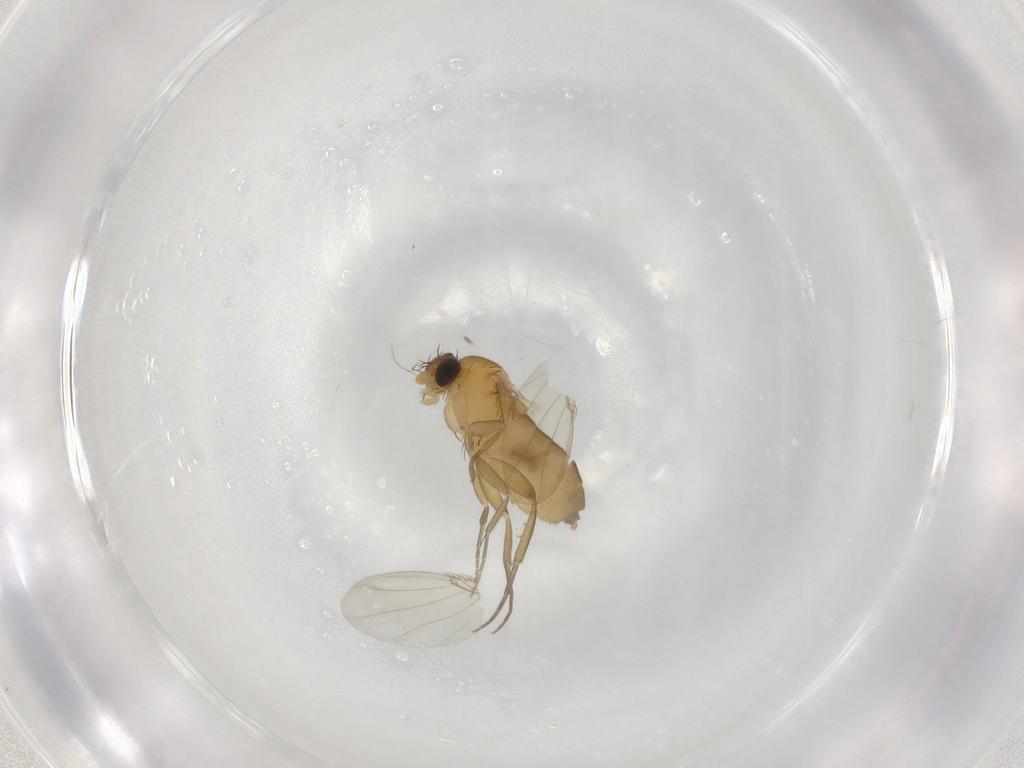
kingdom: Animalia
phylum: Arthropoda
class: Insecta
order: Diptera
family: Phoridae
